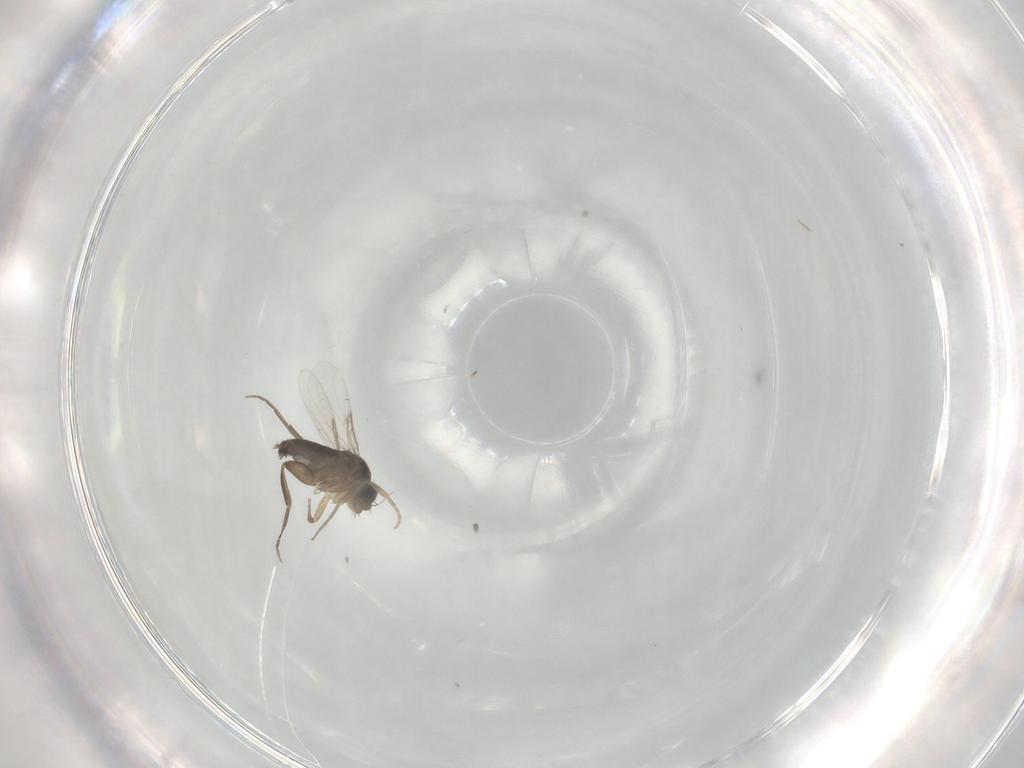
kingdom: Animalia
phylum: Arthropoda
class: Insecta
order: Diptera
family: Phoridae
